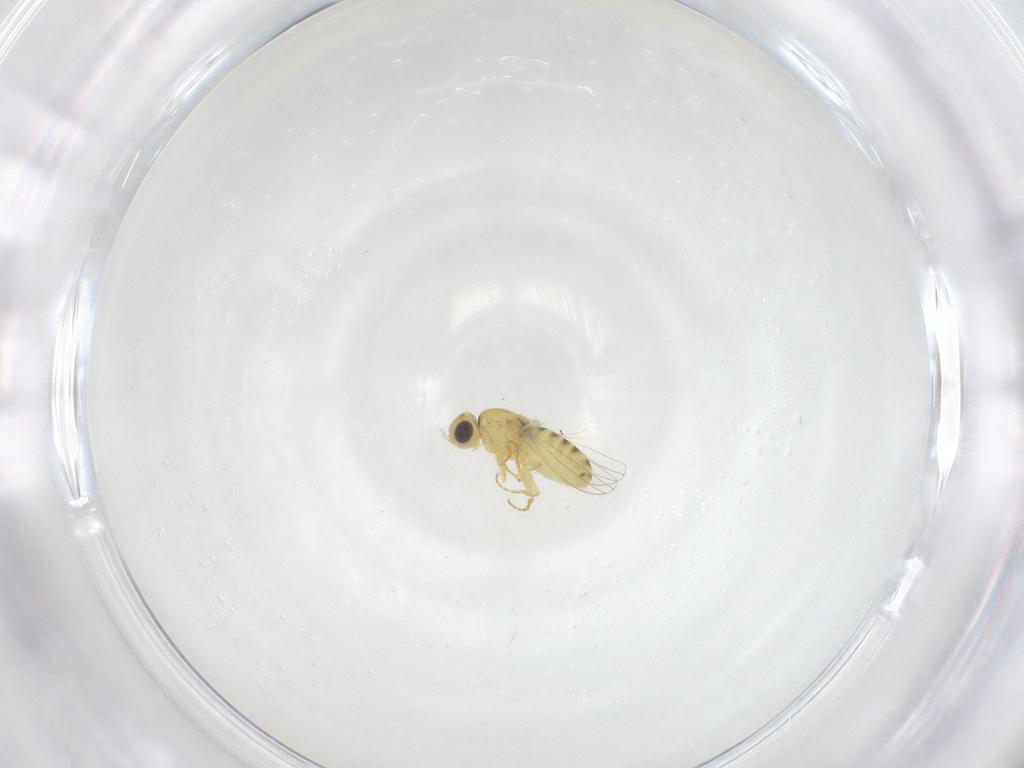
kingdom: Animalia
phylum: Arthropoda
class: Insecta
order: Diptera
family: Chloropidae
